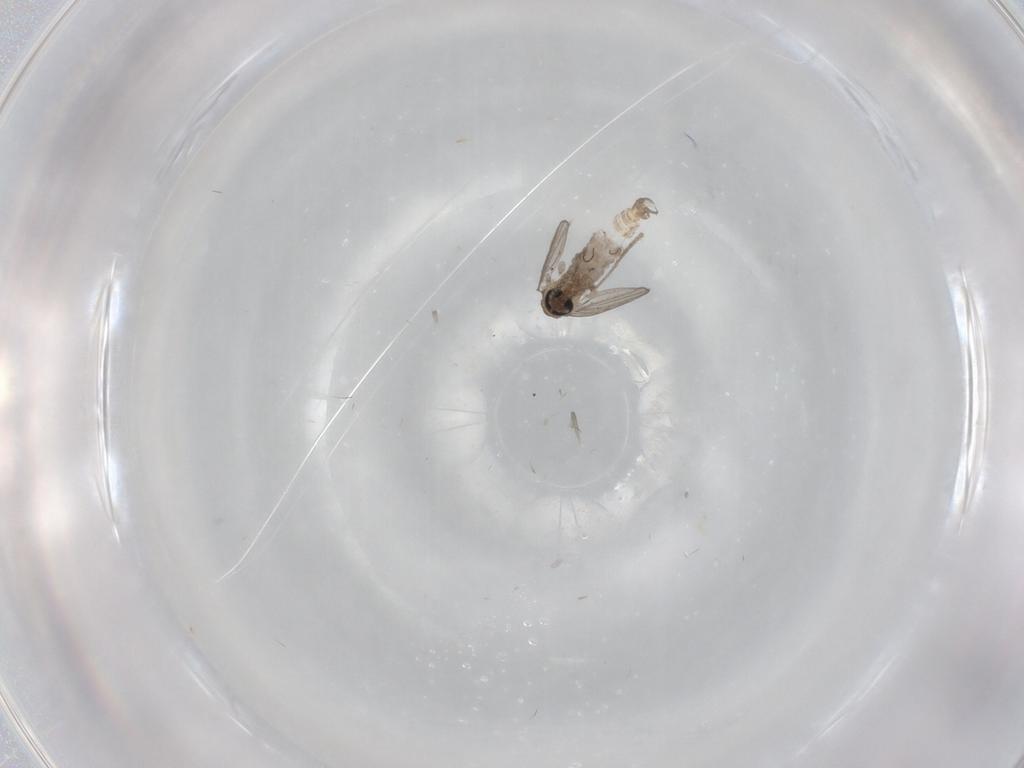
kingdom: Animalia
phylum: Arthropoda
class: Insecta
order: Diptera
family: Psychodidae
